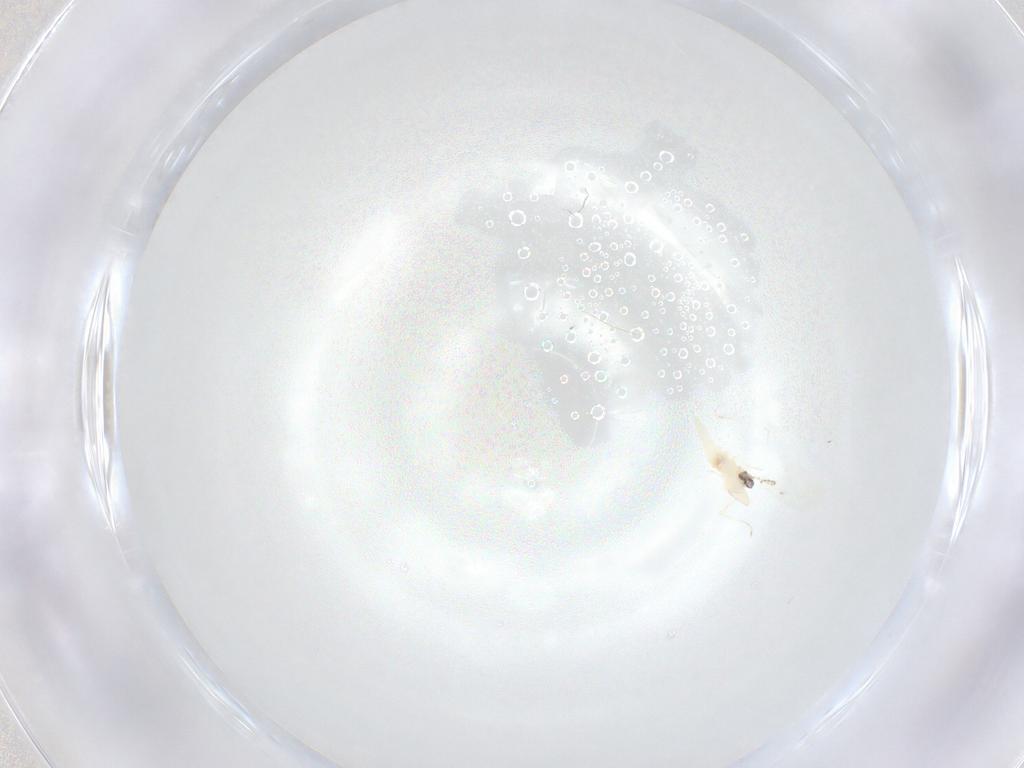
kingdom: Animalia
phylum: Arthropoda
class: Insecta
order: Diptera
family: Cecidomyiidae
